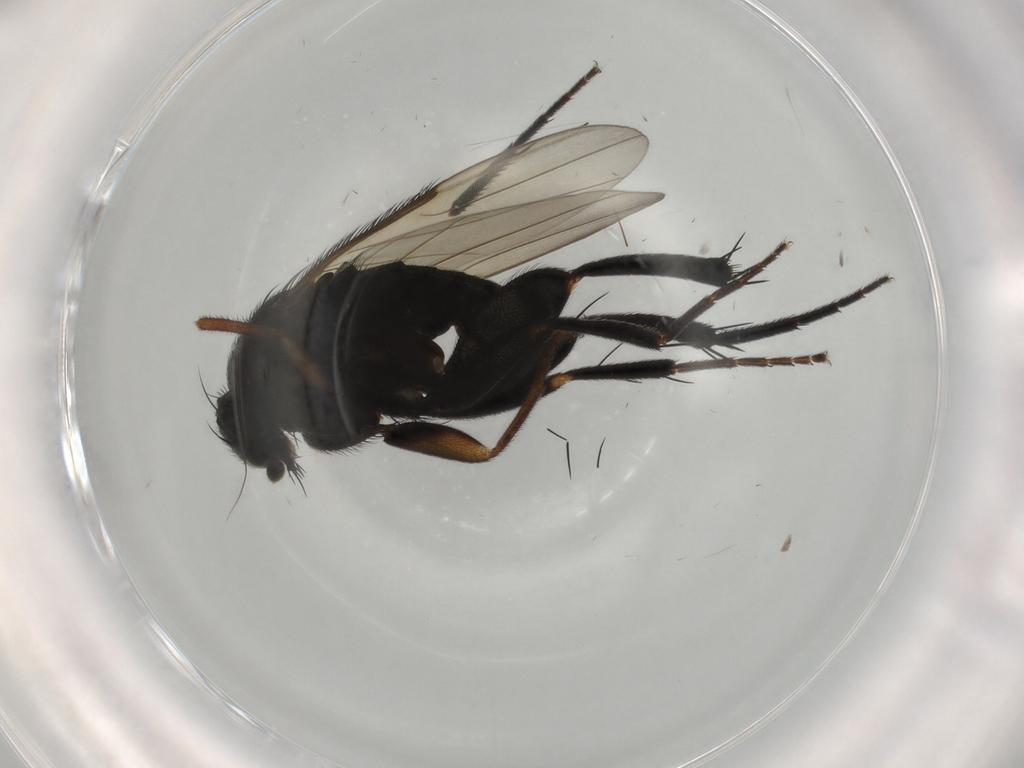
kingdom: Animalia
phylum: Arthropoda
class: Insecta
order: Diptera
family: Phoridae
